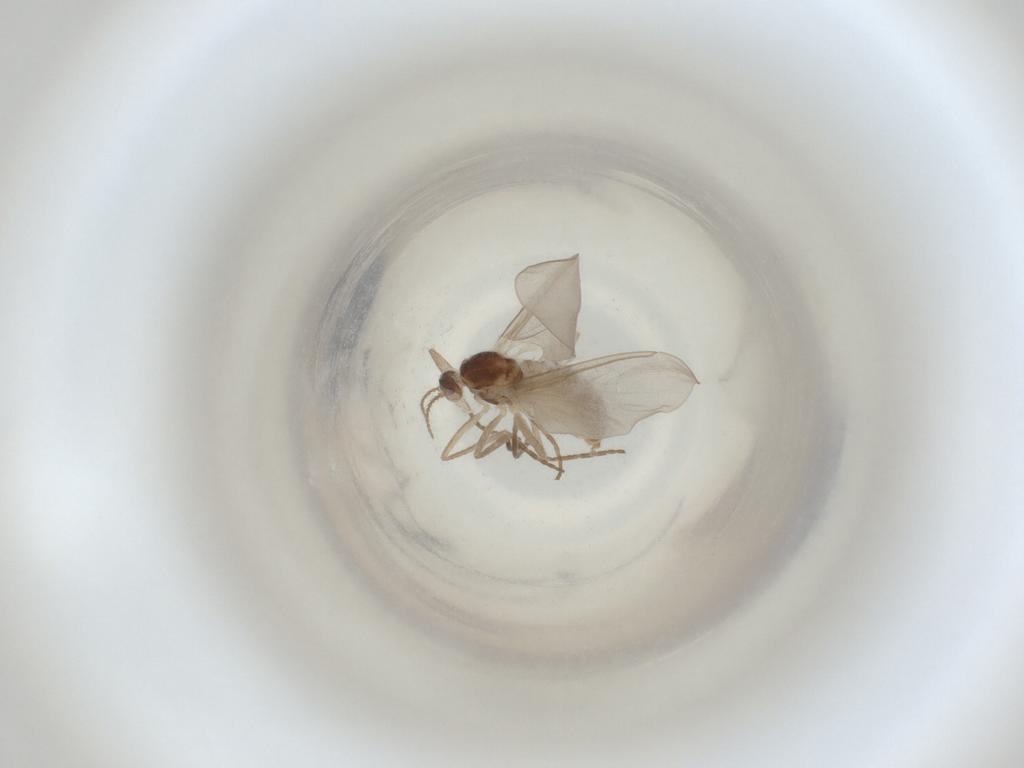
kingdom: Animalia
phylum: Arthropoda
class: Insecta
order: Diptera
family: Cecidomyiidae
